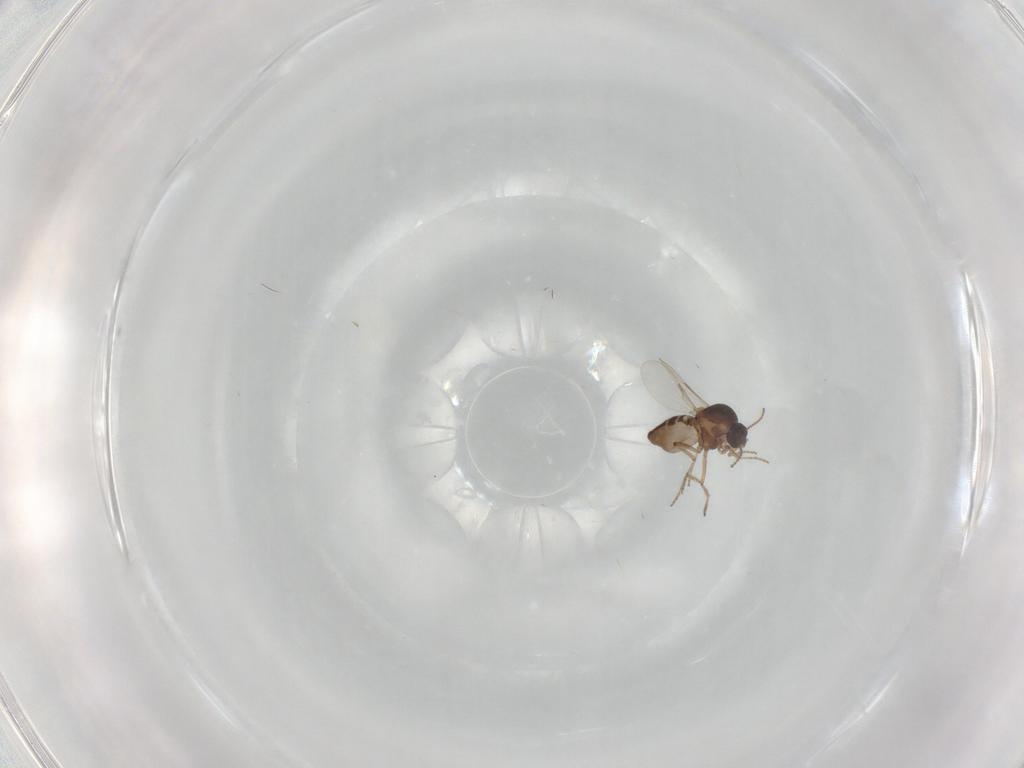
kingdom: Animalia
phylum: Arthropoda
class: Insecta
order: Diptera
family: Ceratopogonidae
